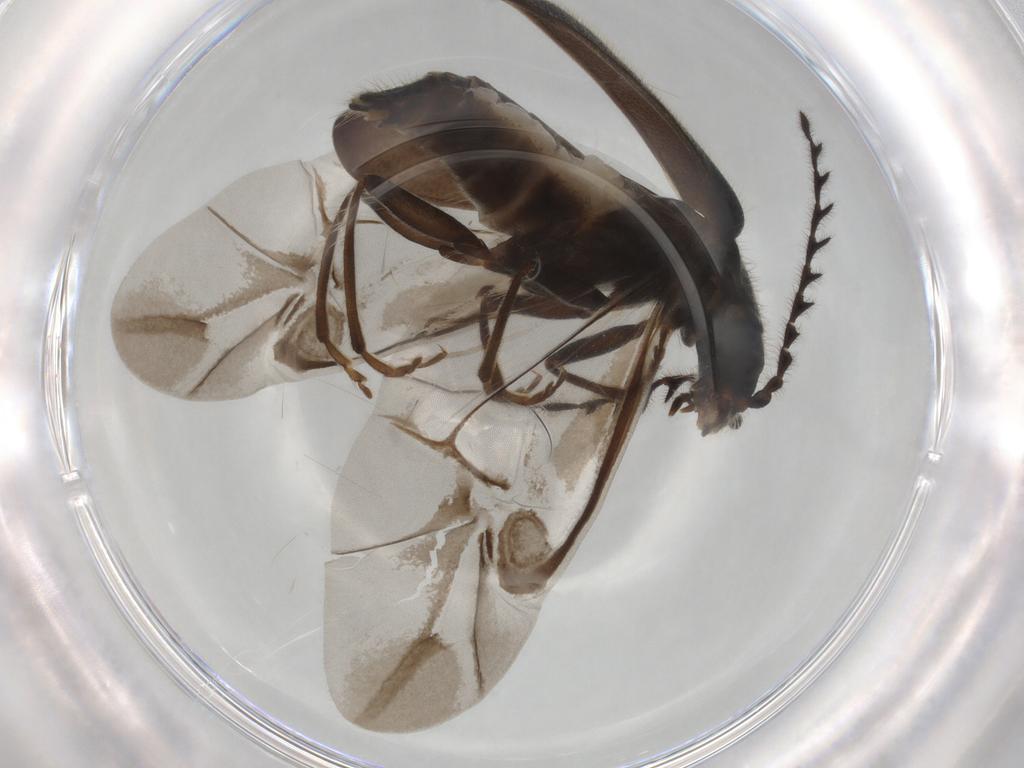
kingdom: Animalia
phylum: Arthropoda
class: Insecta
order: Coleoptera
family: Melyridae
